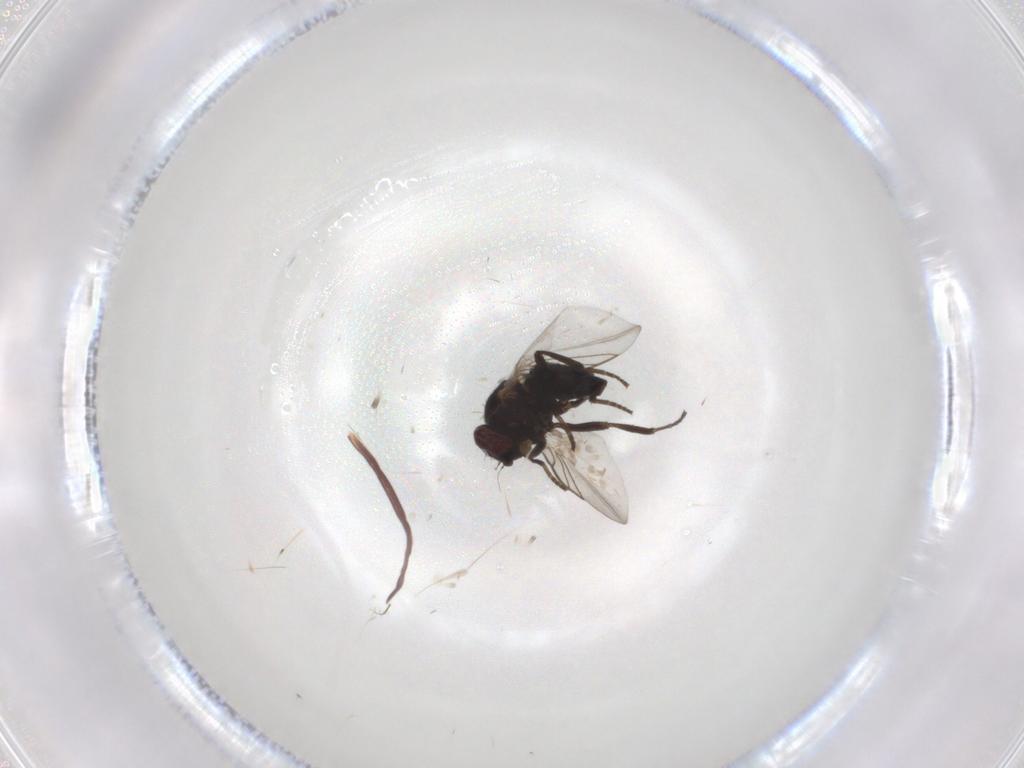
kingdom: Animalia
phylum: Arthropoda
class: Insecta
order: Diptera
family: Agromyzidae
